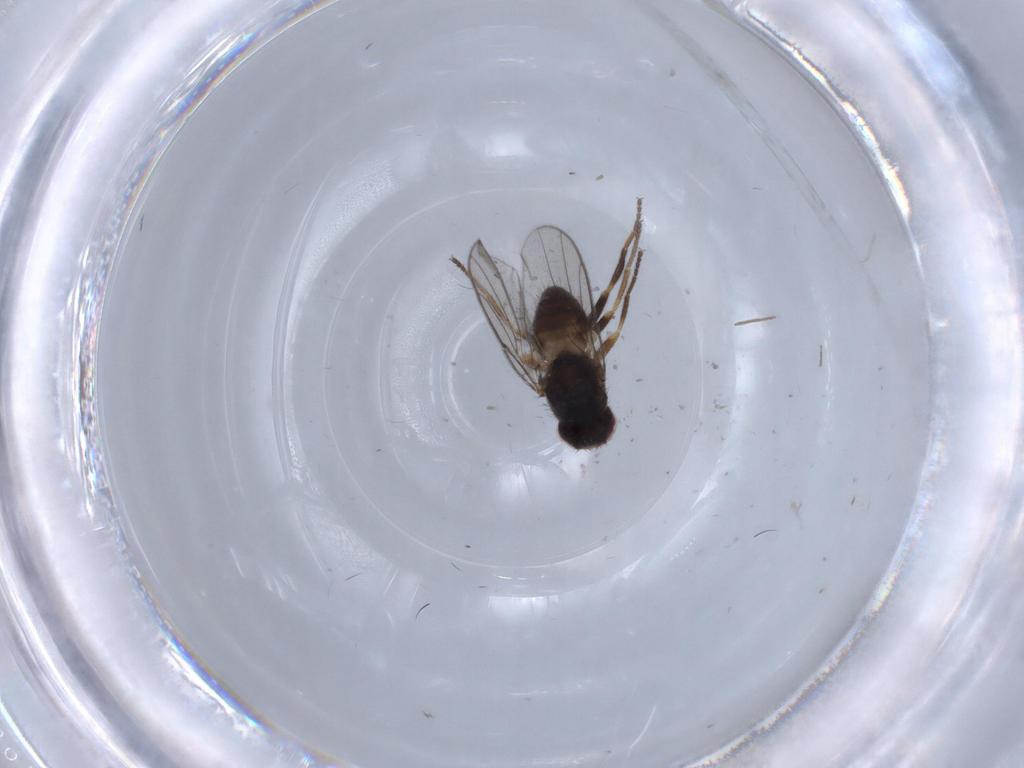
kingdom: Animalia
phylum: Arthropoda
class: Insecta
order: Diptera
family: Chloropidae
